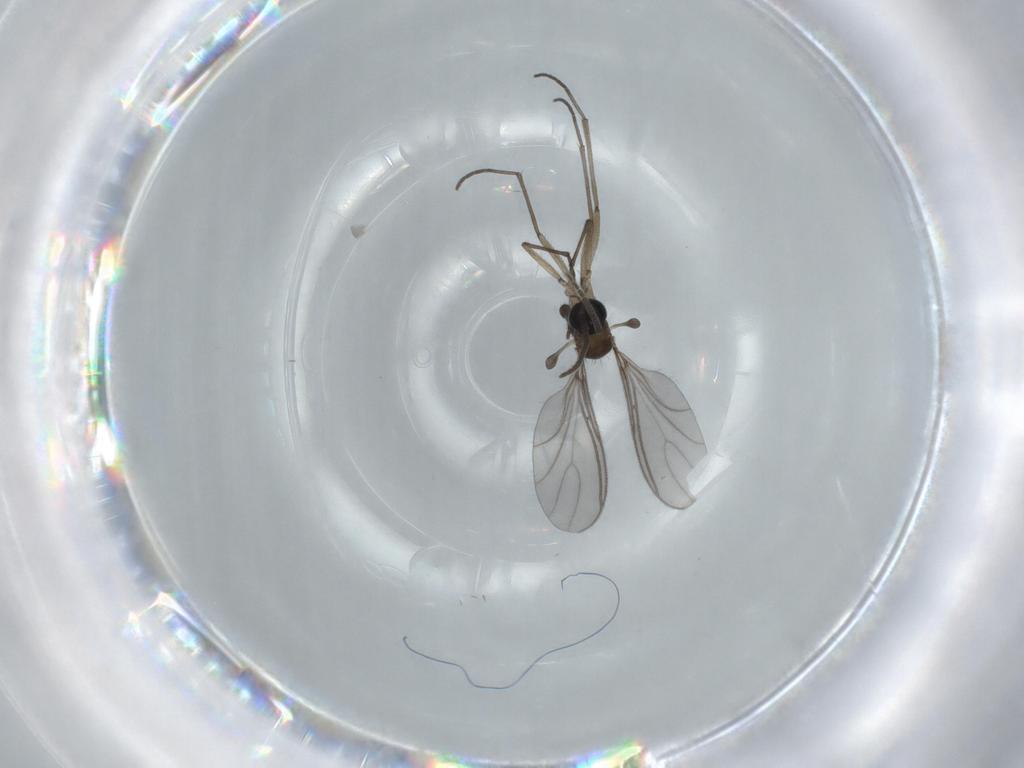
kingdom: Animalia
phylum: Arthropoda
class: Insecta
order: Diptera
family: Sciaridae
